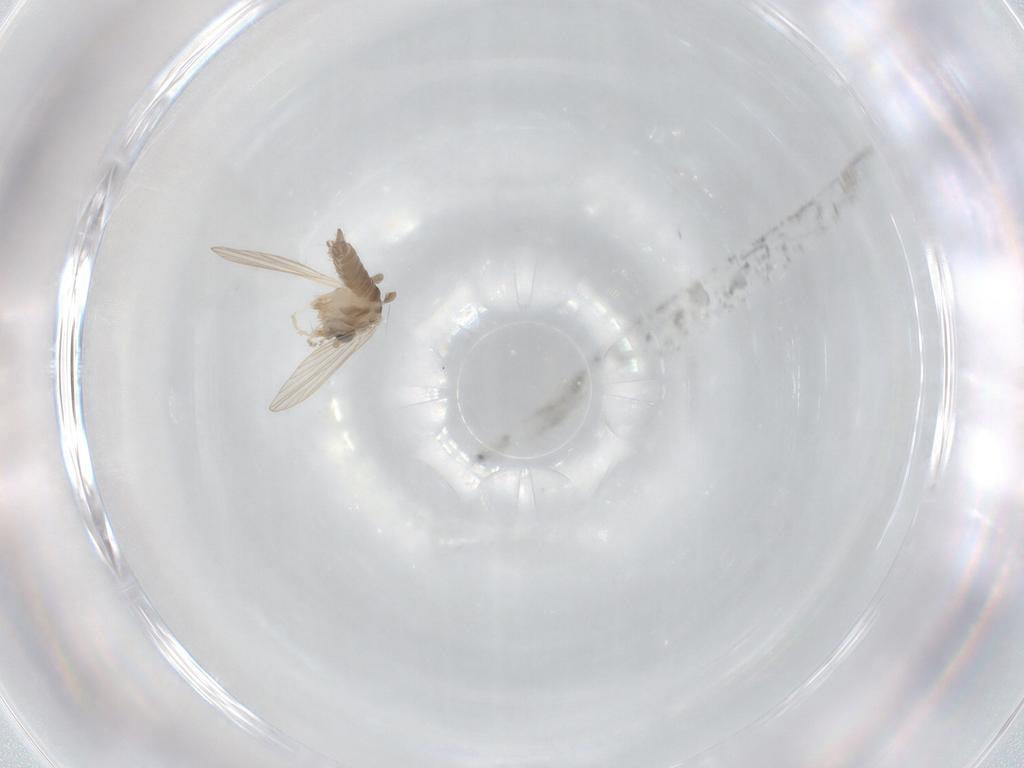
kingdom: Animalia
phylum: Arthropoda
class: Insecta
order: Diptera
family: Psychodidae
